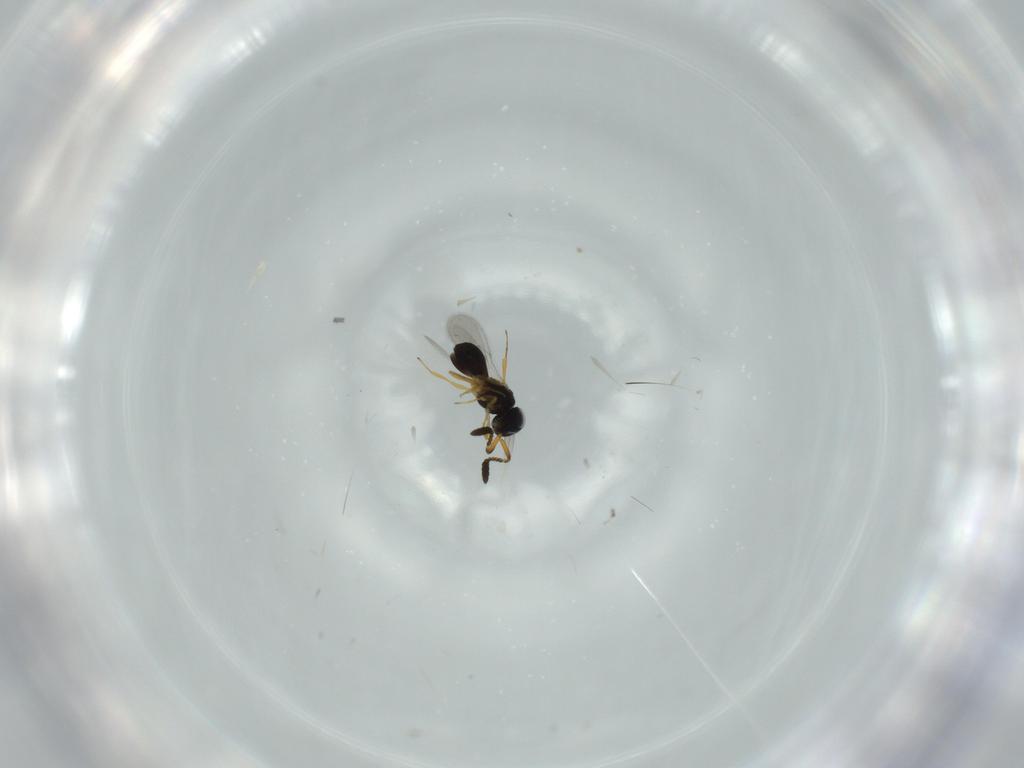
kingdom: Animalia
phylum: Arthropoda
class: Insecta
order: Hymenoptera
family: Scelionidae
